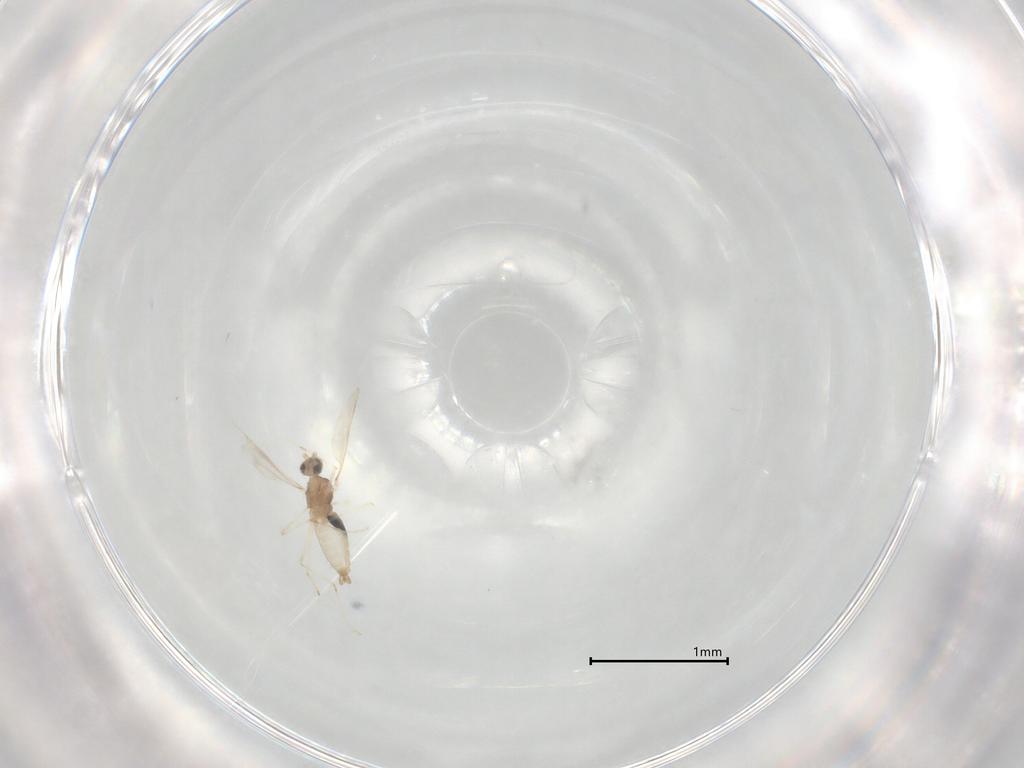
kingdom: Animalia
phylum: Arthropoda
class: Insecta
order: Diptera
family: Cecidomyiidae
